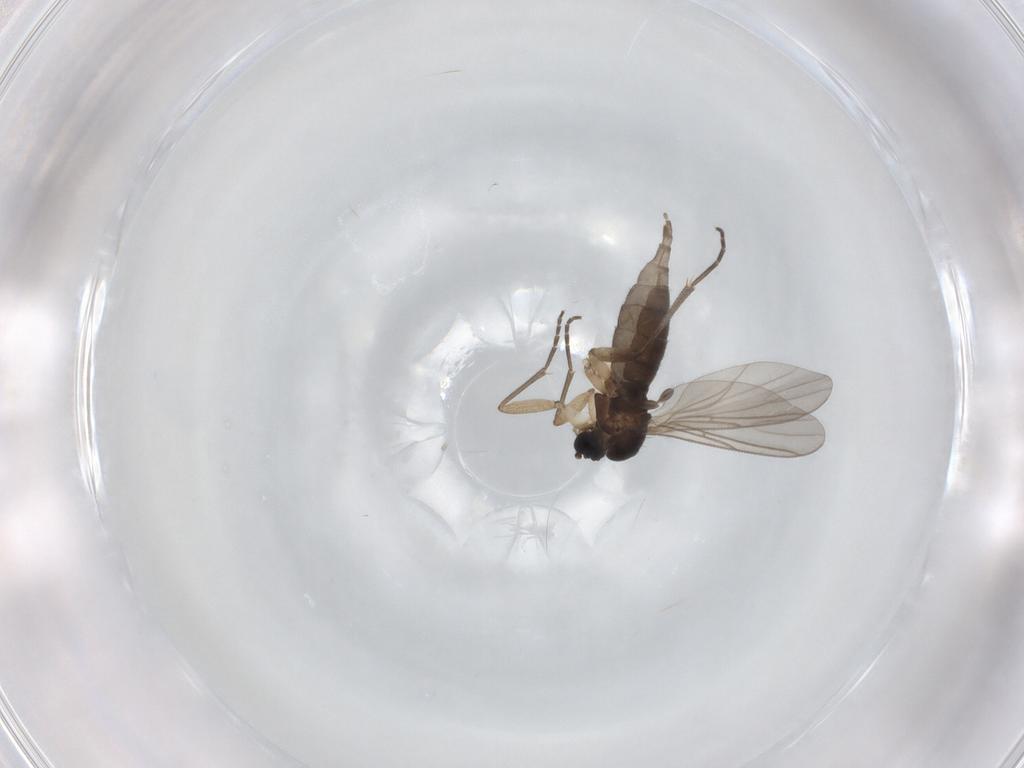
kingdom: Animalia
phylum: Arthropoda
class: Insecta
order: Diptera
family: Sciaridae
